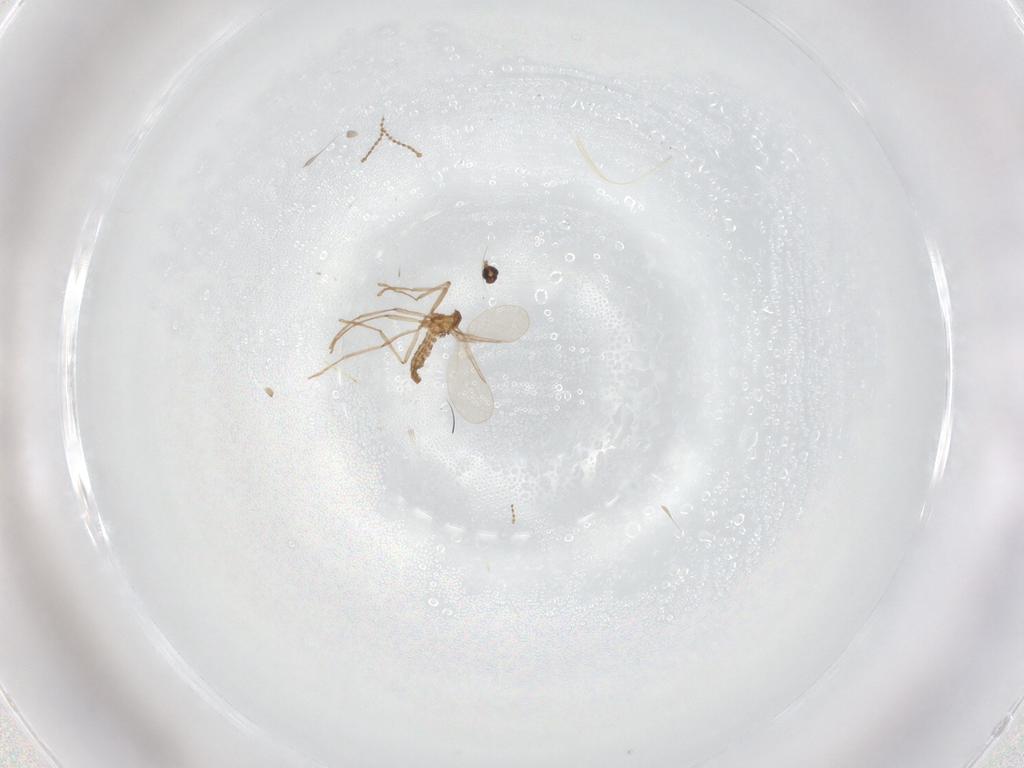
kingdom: Animalia
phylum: Arthropoda
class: Insecta
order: Diptera
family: Cecidomyiidae
